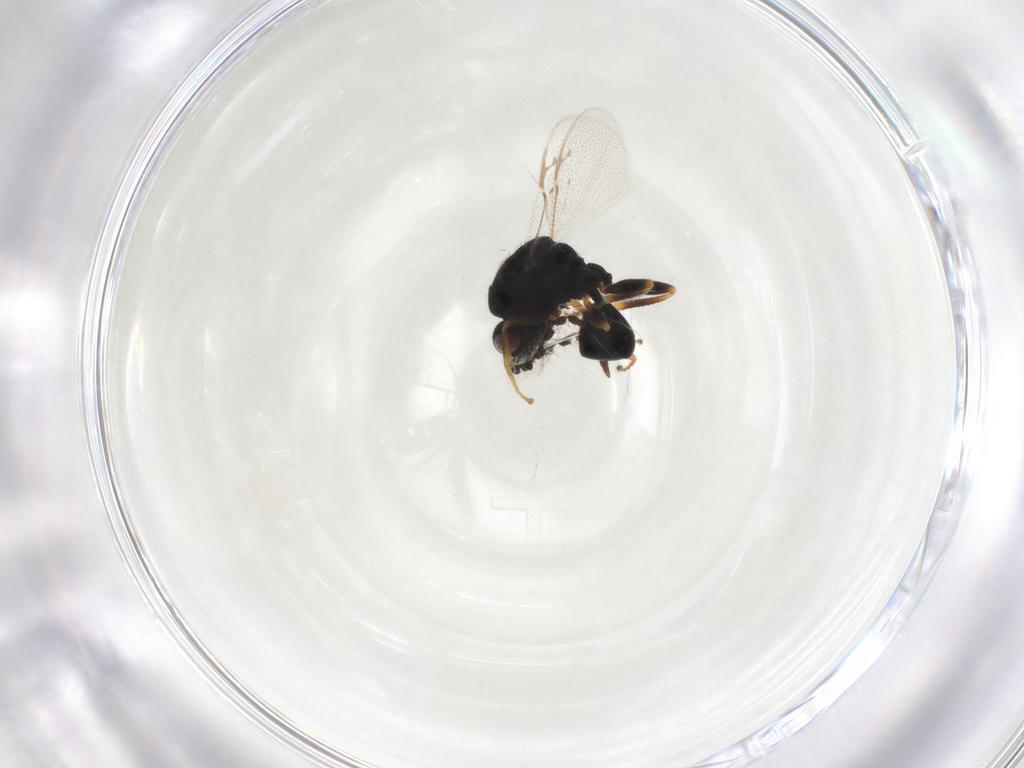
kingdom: Animalia
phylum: Arthropoda
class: Insecta
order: Hymenoptera
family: Eurytomidae
